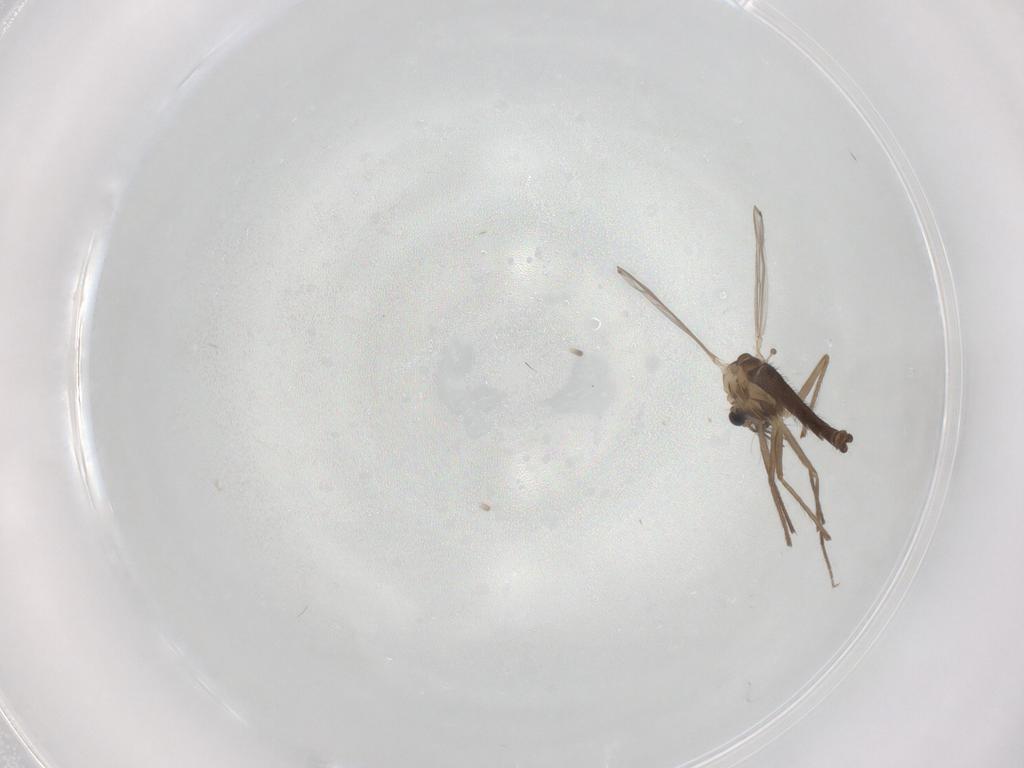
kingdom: Animalia
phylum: Arthropoda
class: Insecta
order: Diptera
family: Chironomidae
